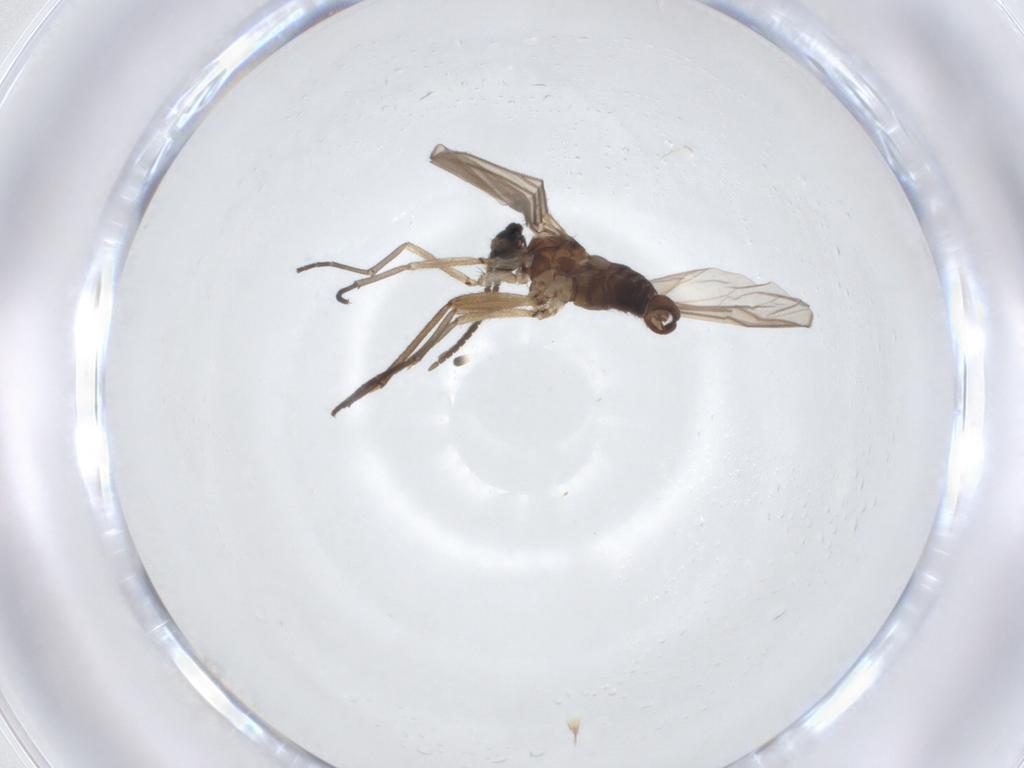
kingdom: Animalia
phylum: Arthropoda
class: Insecta
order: Diptera
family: Sciaridae
